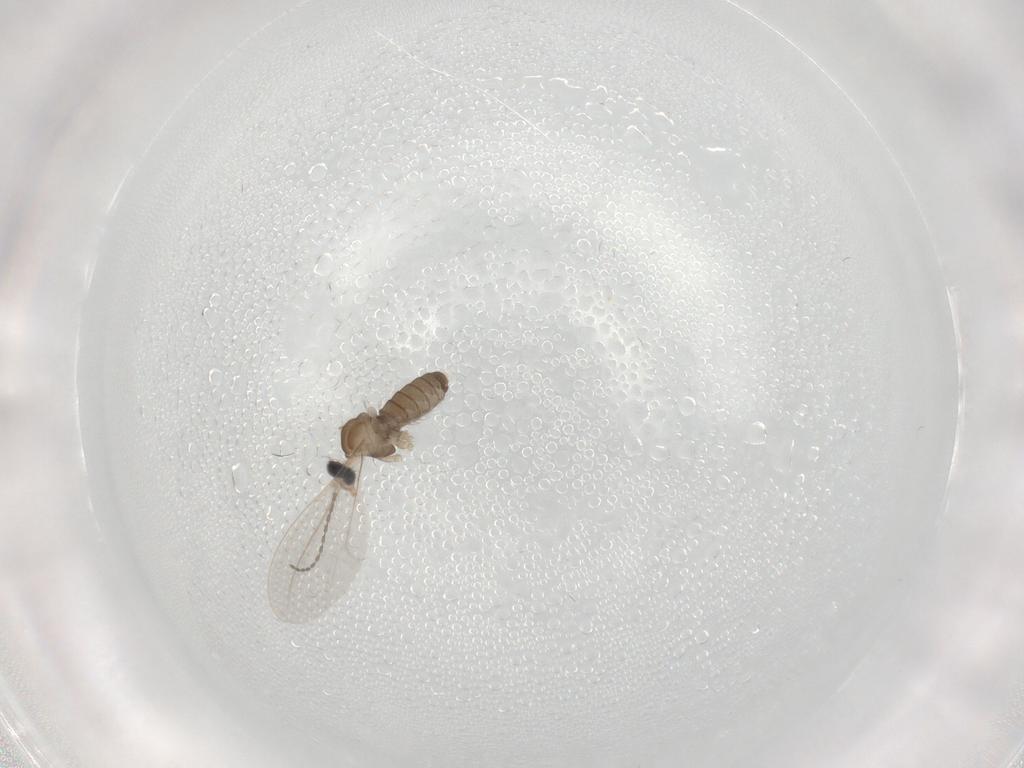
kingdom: Animalia
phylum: Arthropoda
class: Insecta
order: Diptera
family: Cecidomyiidae
